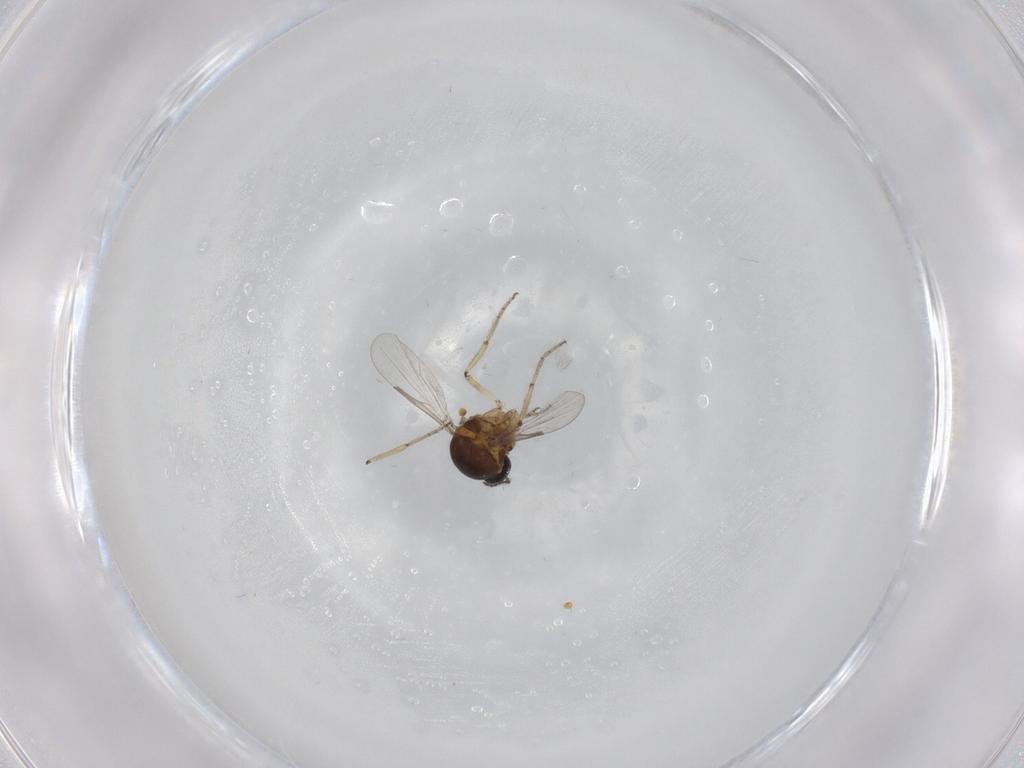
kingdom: Animalia
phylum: Arthropoda
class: Insecta
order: Diptera
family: Ceratopogonidae
